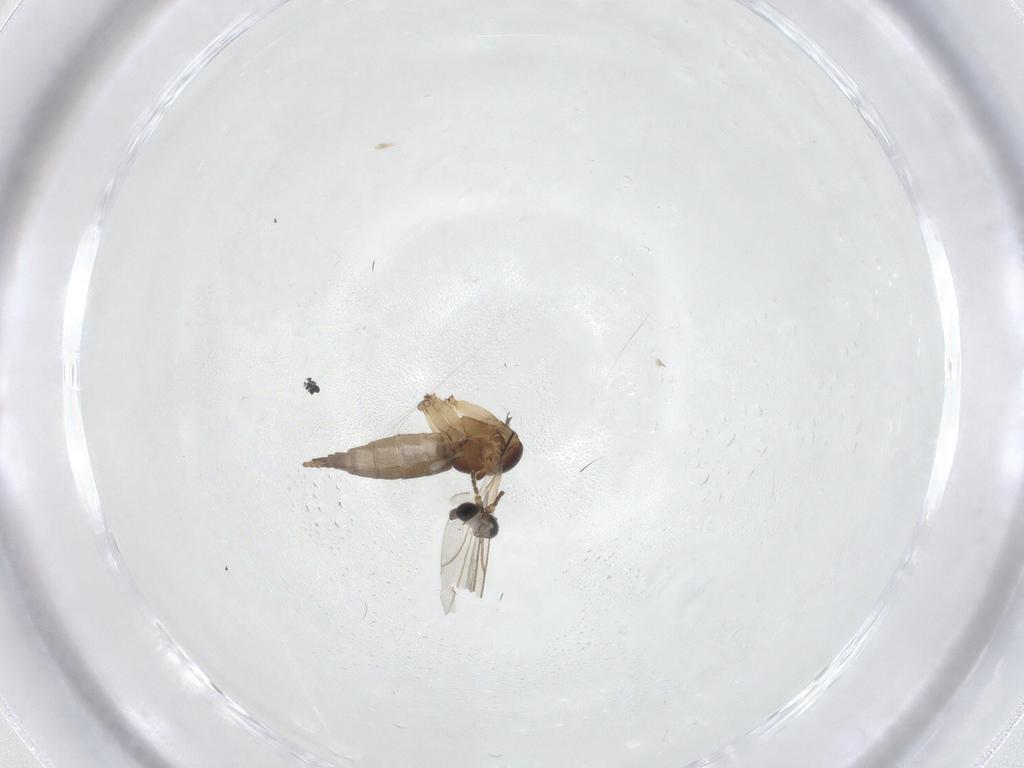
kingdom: Animalia
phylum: Arthropoda
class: Insecta
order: Diptera
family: Sciaridae
